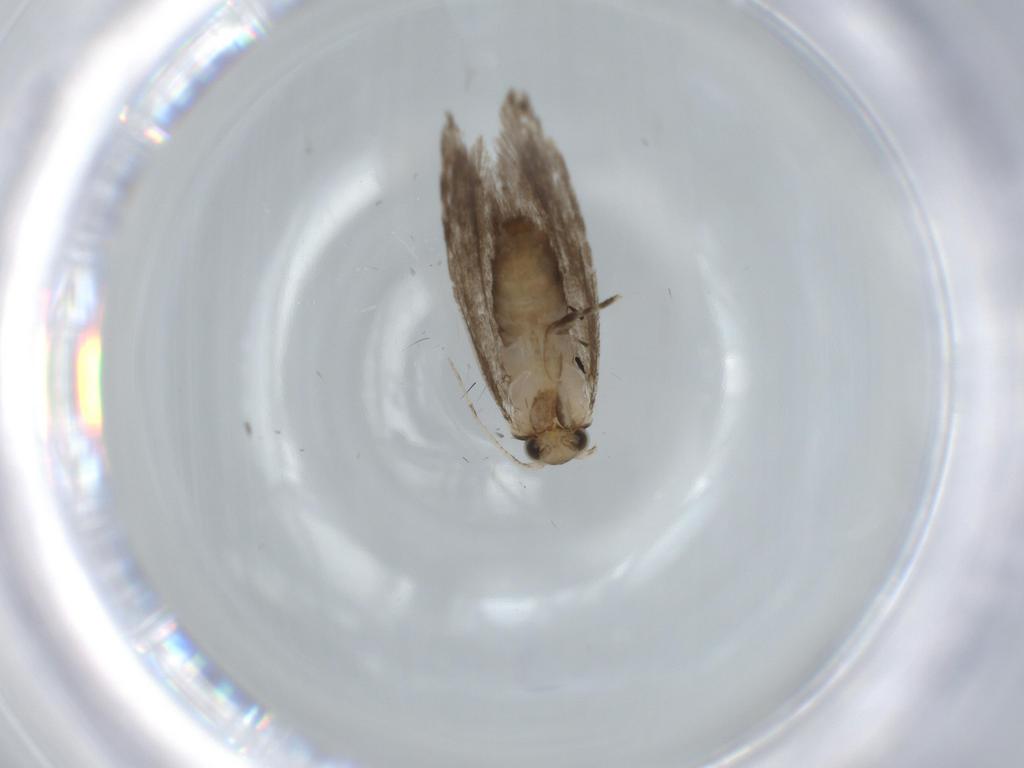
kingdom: Animalia
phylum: Arthropoda
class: Insecta
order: Lepidoptera
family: Tineidae
